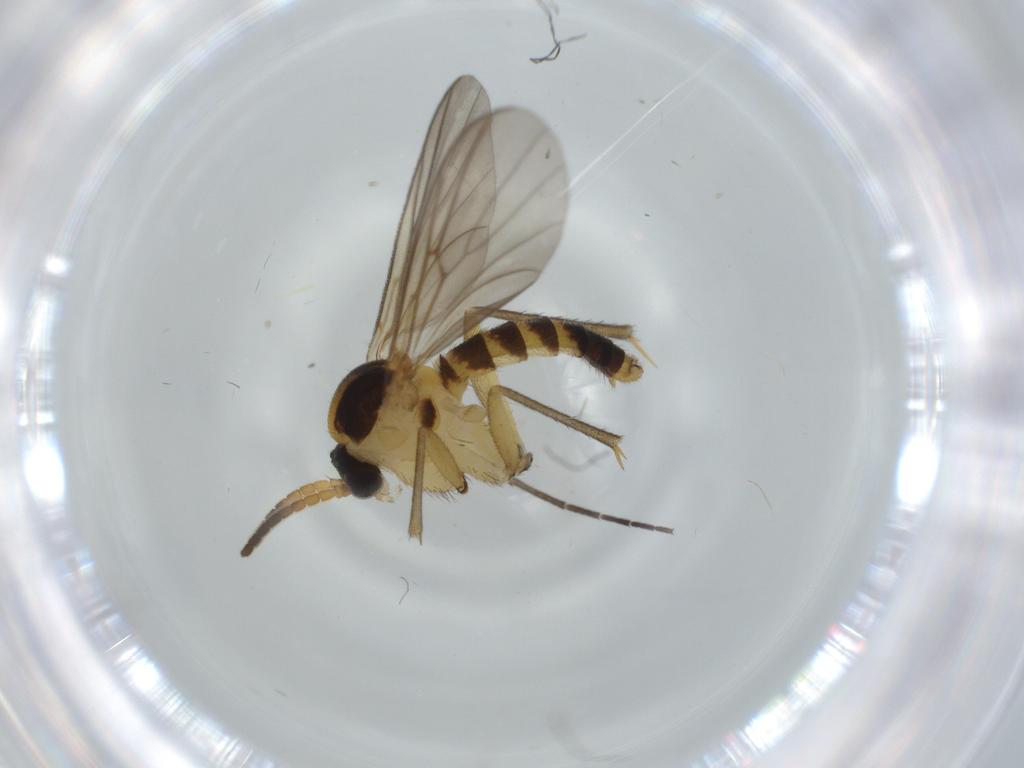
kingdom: Animalia
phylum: Arthropoda
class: Insecta
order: Diptera
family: Mycetophilidae
